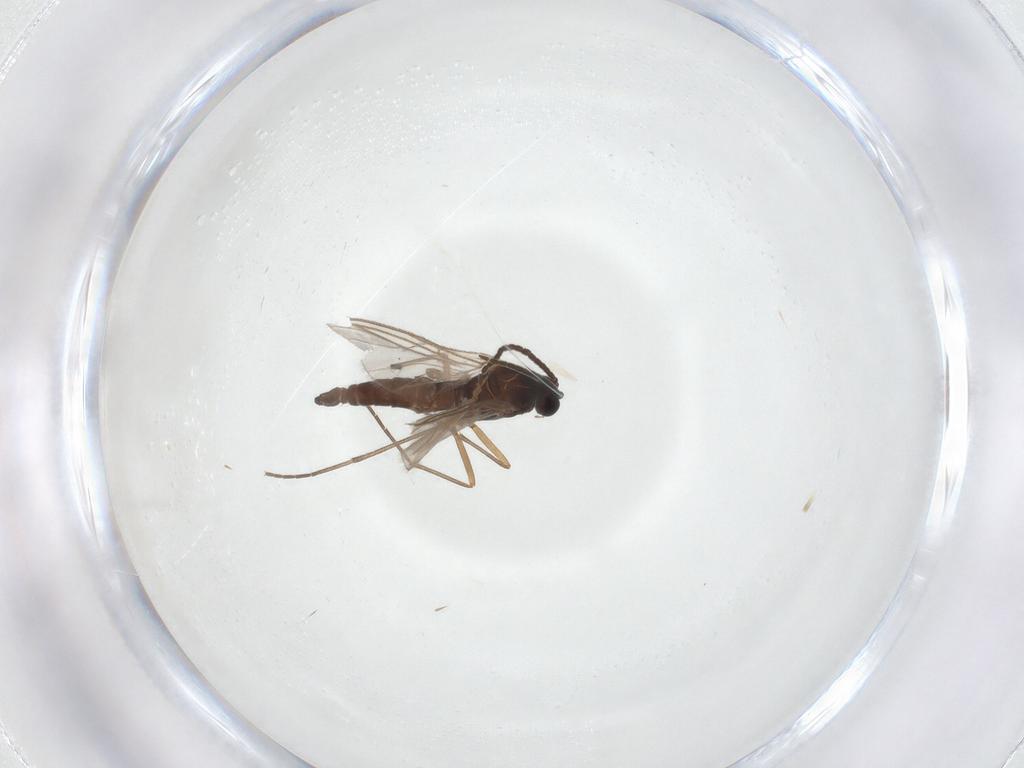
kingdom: Animalia
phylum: Arthropoda
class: Insecta
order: Diptera
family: Sciaridae
